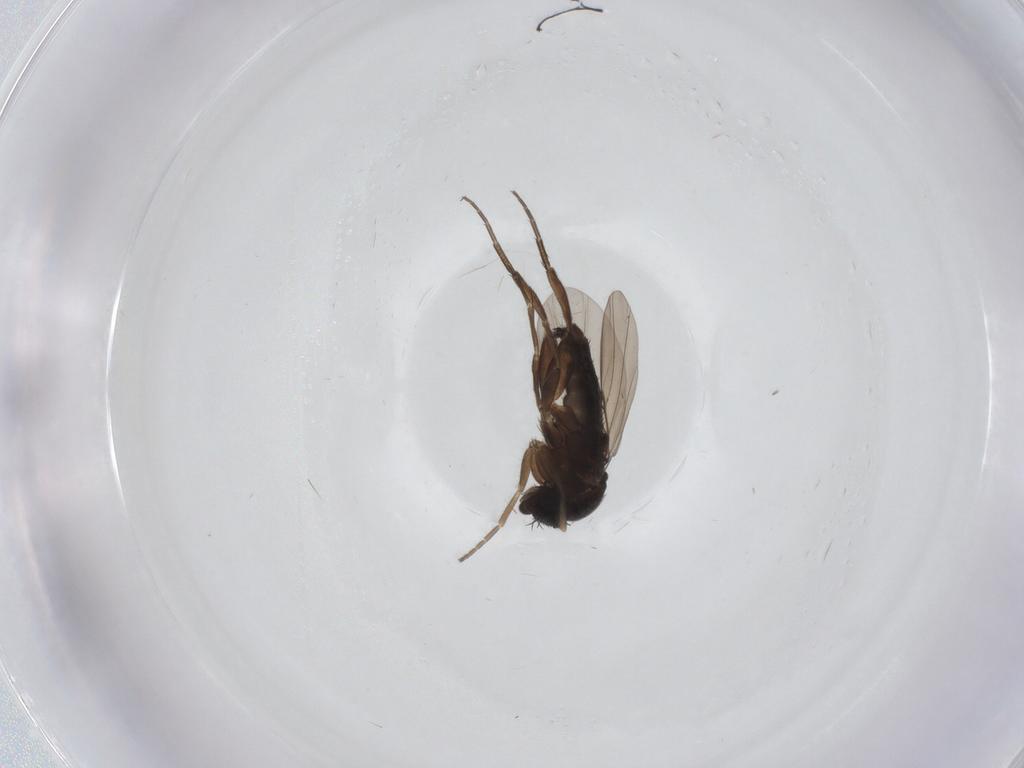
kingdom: Animalia
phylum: Arthropoda
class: Insecta
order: Diptera
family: Phoridae
